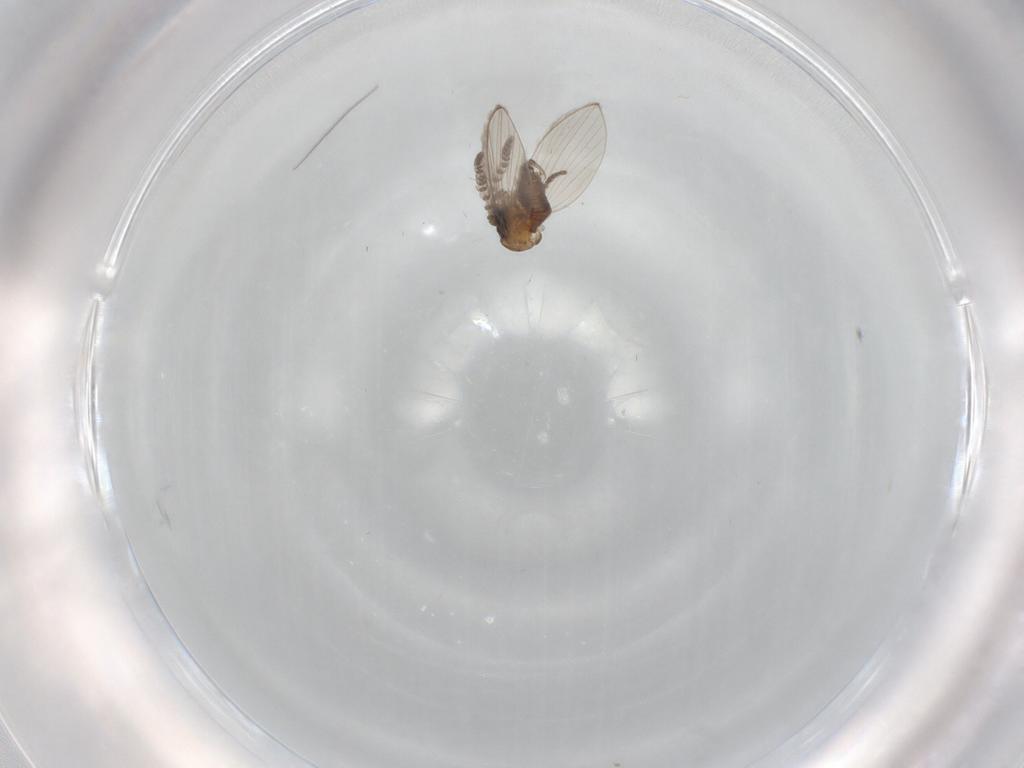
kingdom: Animalia
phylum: Arthropoda
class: Insecta
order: Diptera
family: Psychodidae
